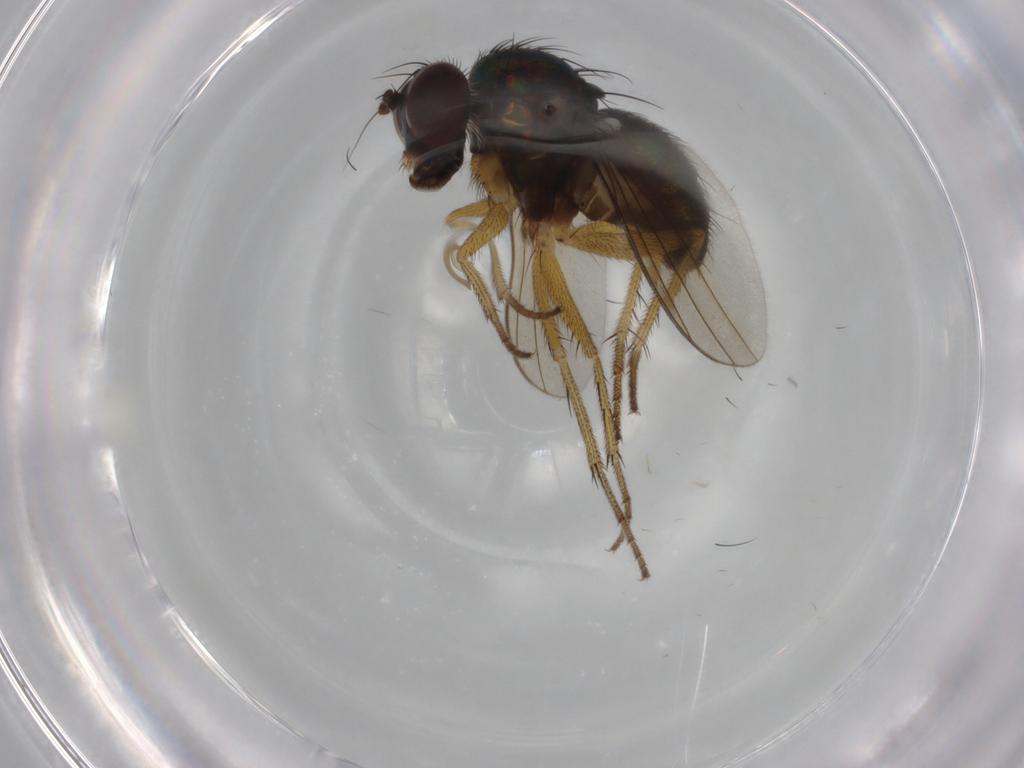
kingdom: Animalia
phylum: Arthropoda
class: Insecta
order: Diptera
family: Dolichopodidae
